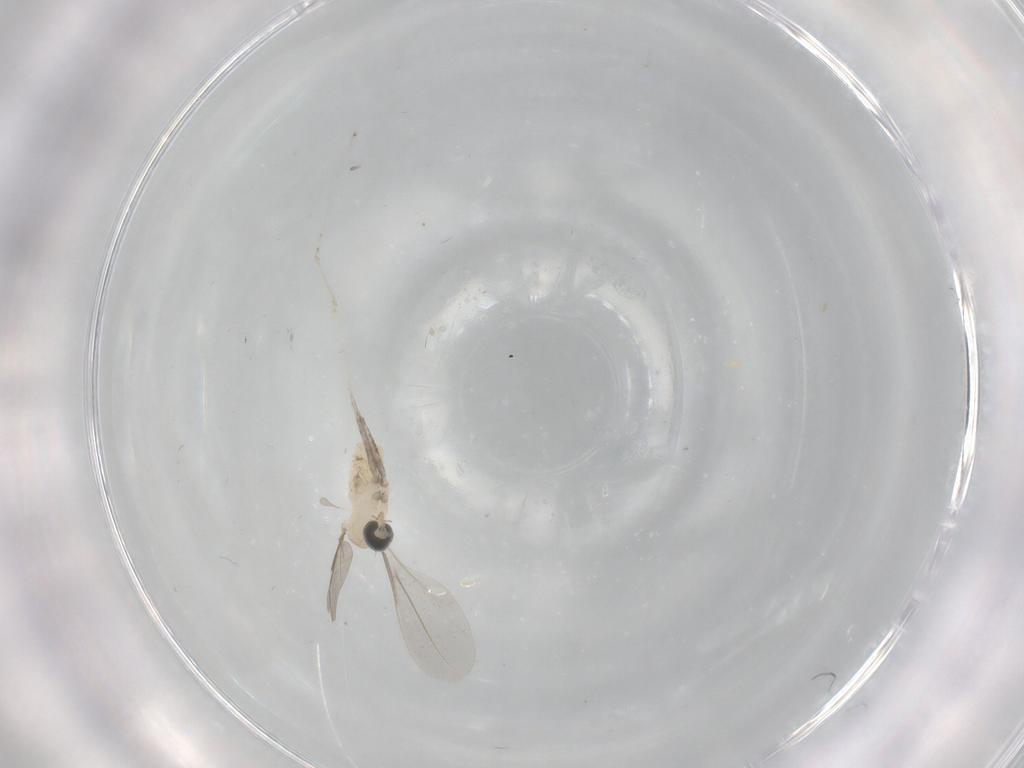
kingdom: Animalia
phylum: Arthropoda
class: Insecta
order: Diptera
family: Cecidomyiidae
